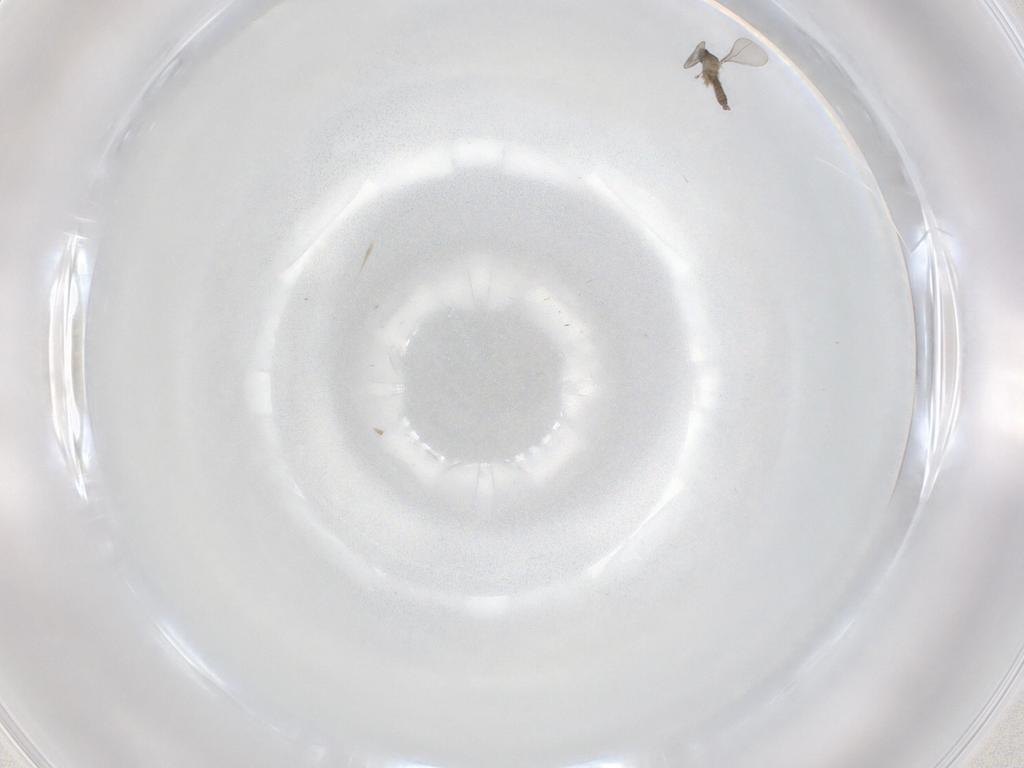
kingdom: Animalia
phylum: Arthropoda
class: Insecta
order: Diptera
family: Cecidomyiidae
